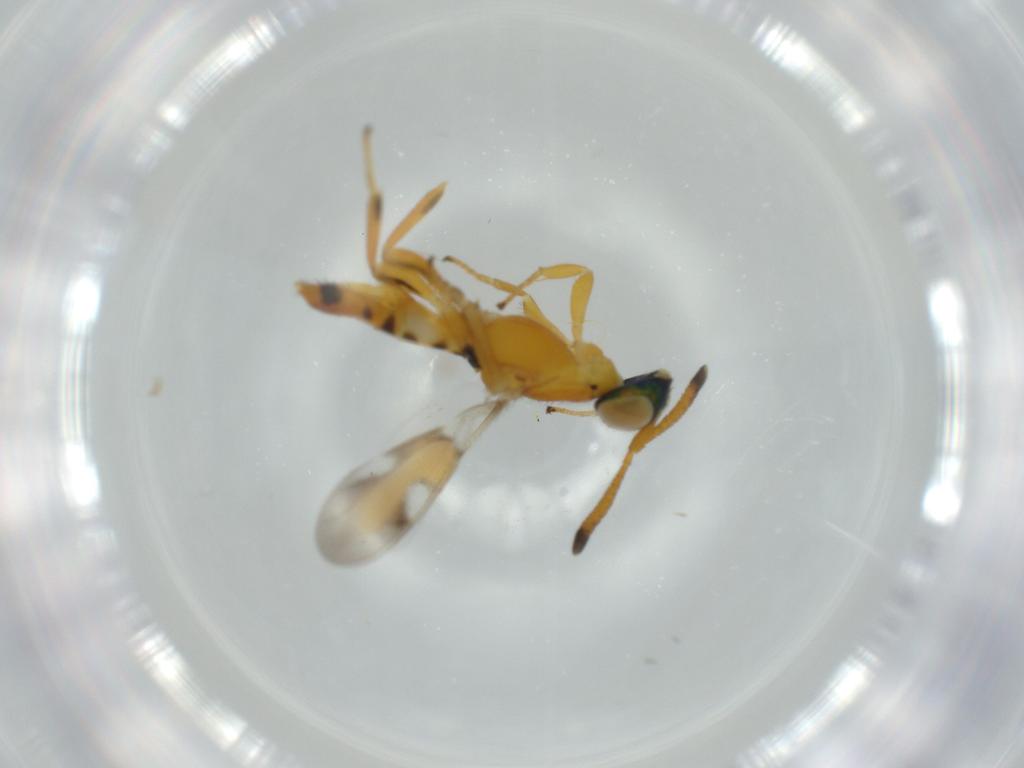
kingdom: Animalia
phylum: Arthropoda
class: Insecta
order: Hymenoptera
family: Eupelmidae
